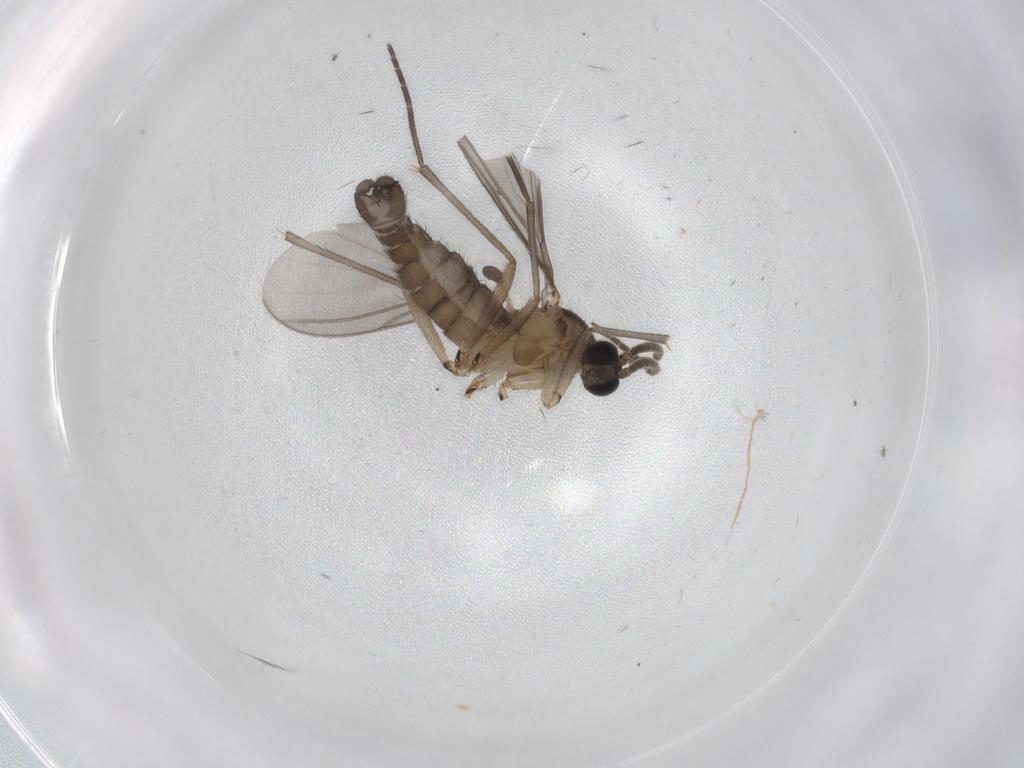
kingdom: Animalia
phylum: Arthropoda
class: Insecta
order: Diptera
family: Sciaridae
